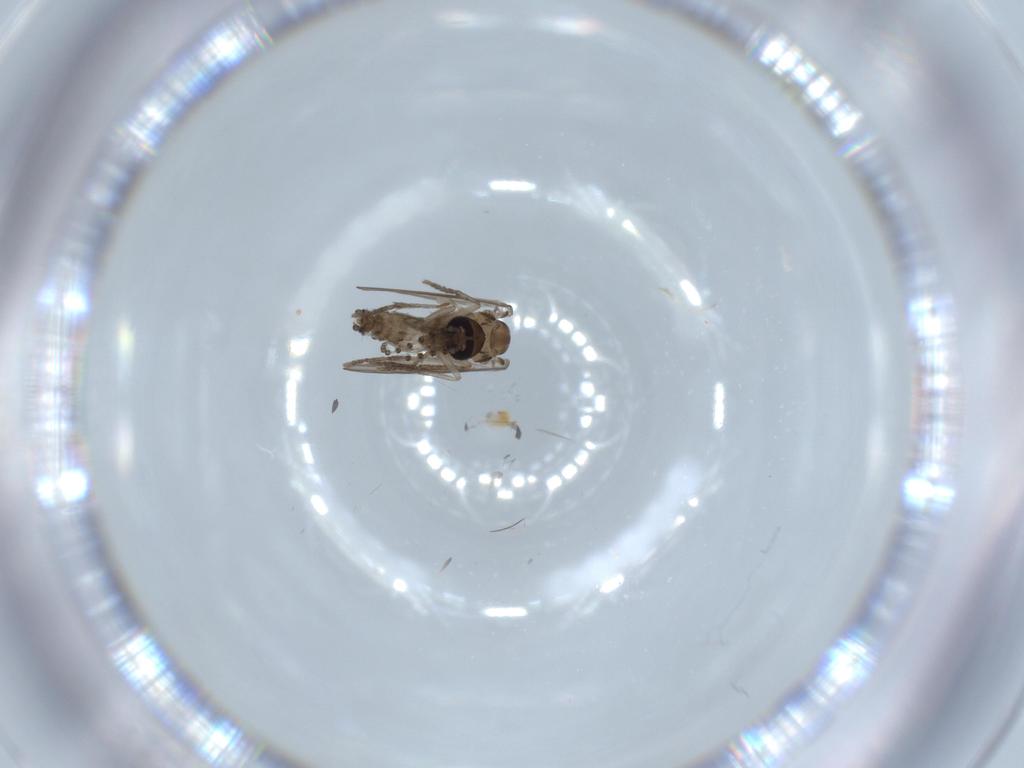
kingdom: Animalia
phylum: Arthropoda
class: Insecta
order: Diptera
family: Psychodidae
